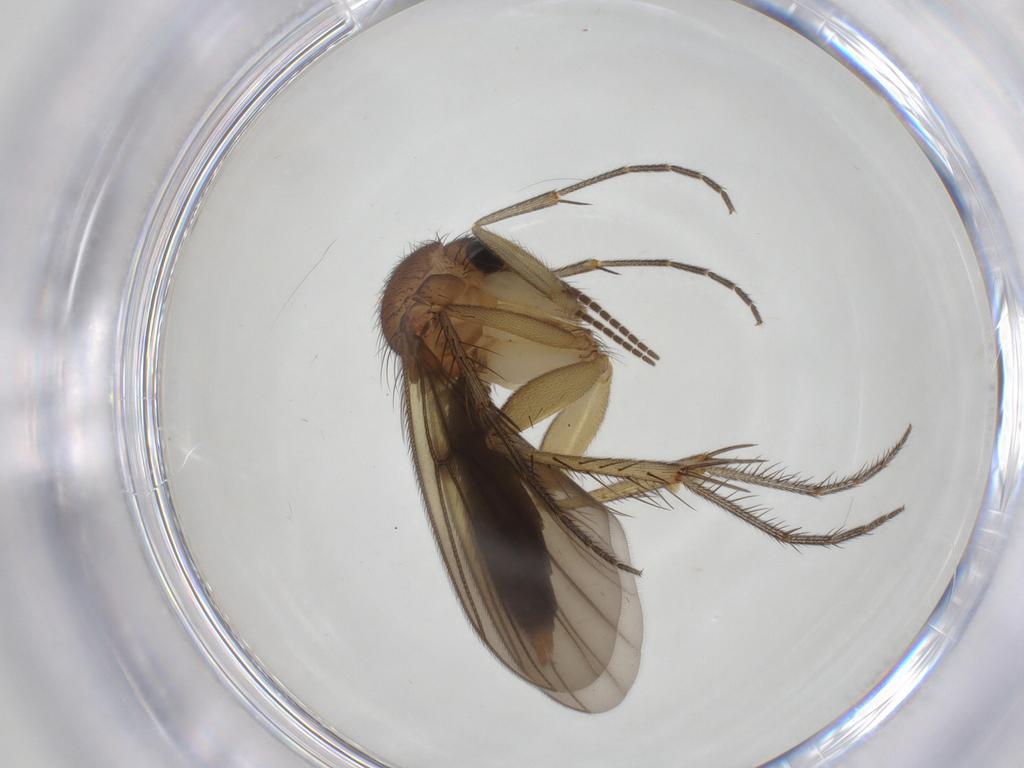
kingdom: Animalia
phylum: Arthropoda
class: Insecta
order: Diptera
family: Chironomidae
